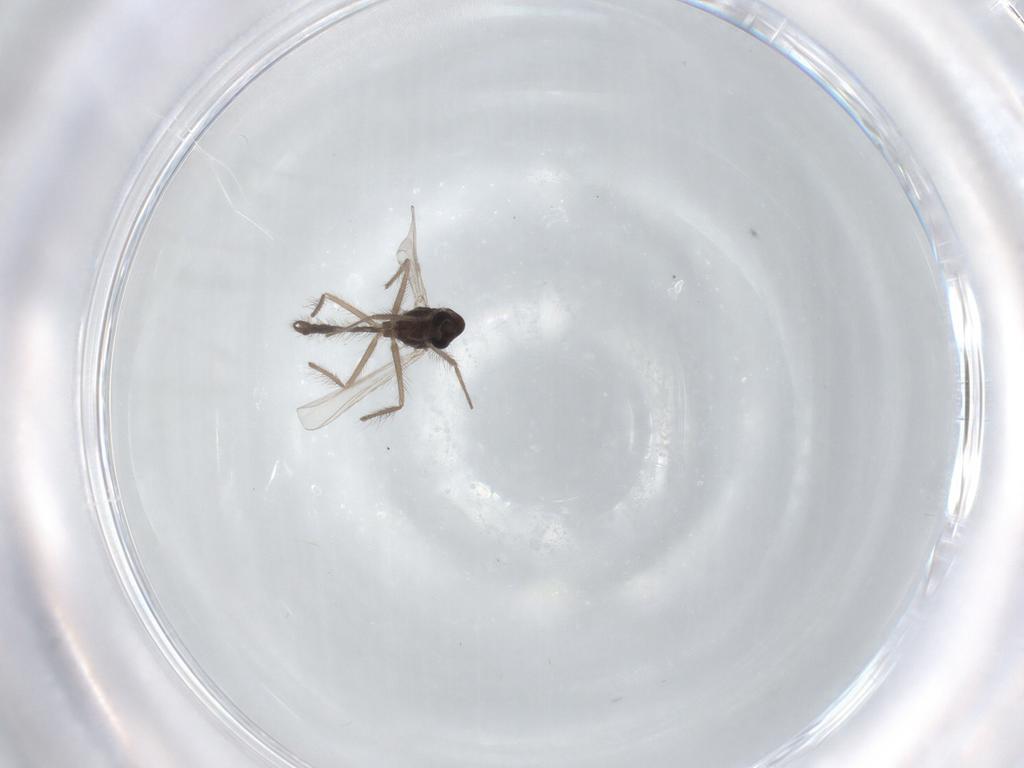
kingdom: Animalia
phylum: Arthropoda
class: Insecta
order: Diptera
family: Chironomidae
